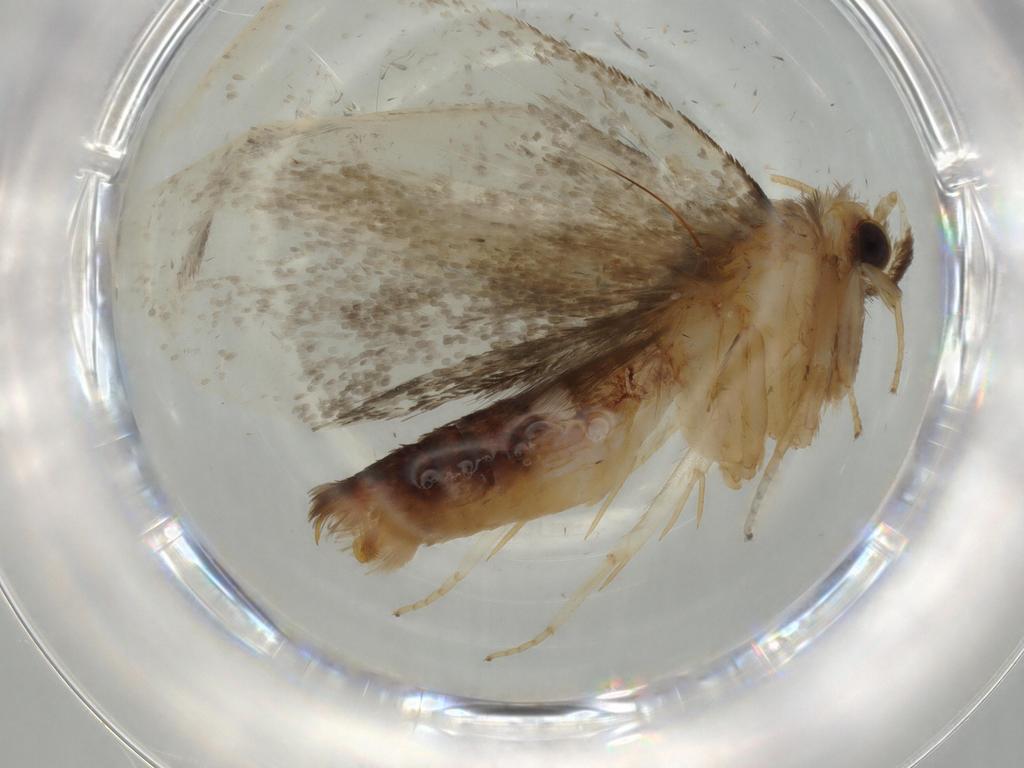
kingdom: Animalia
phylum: Arthropoda
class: Insecta
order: Lepidoptera
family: Tineidae
